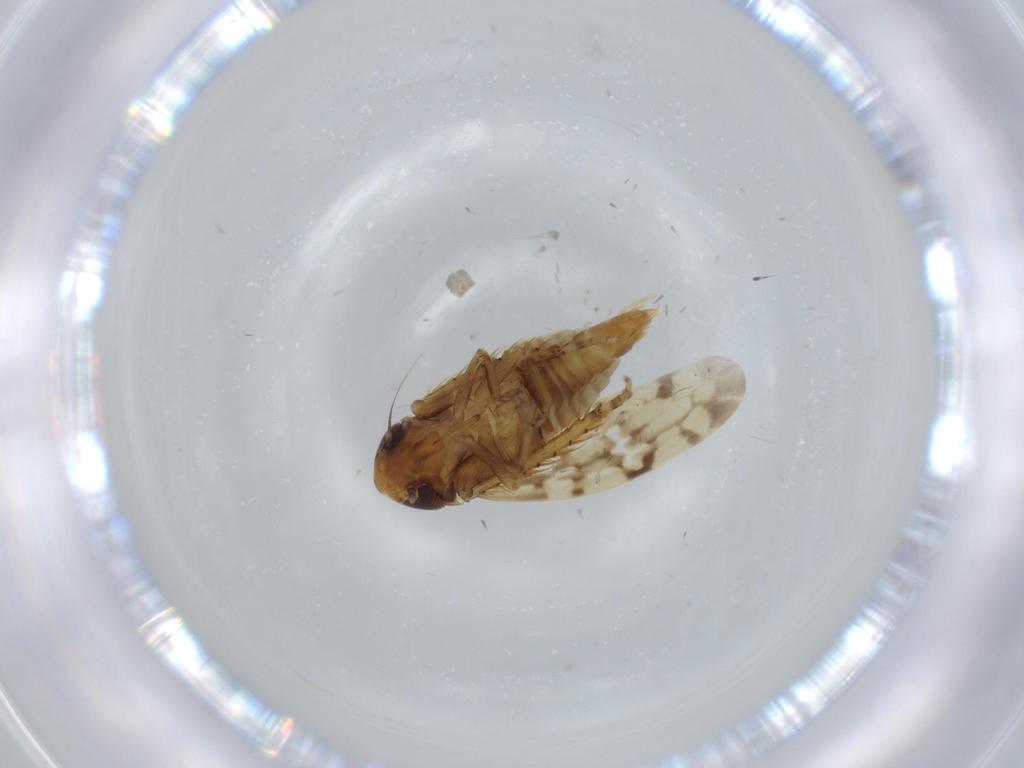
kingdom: Animalia
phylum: Arthropoda
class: Insecta
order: Hemiptera
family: Cicadellidae
